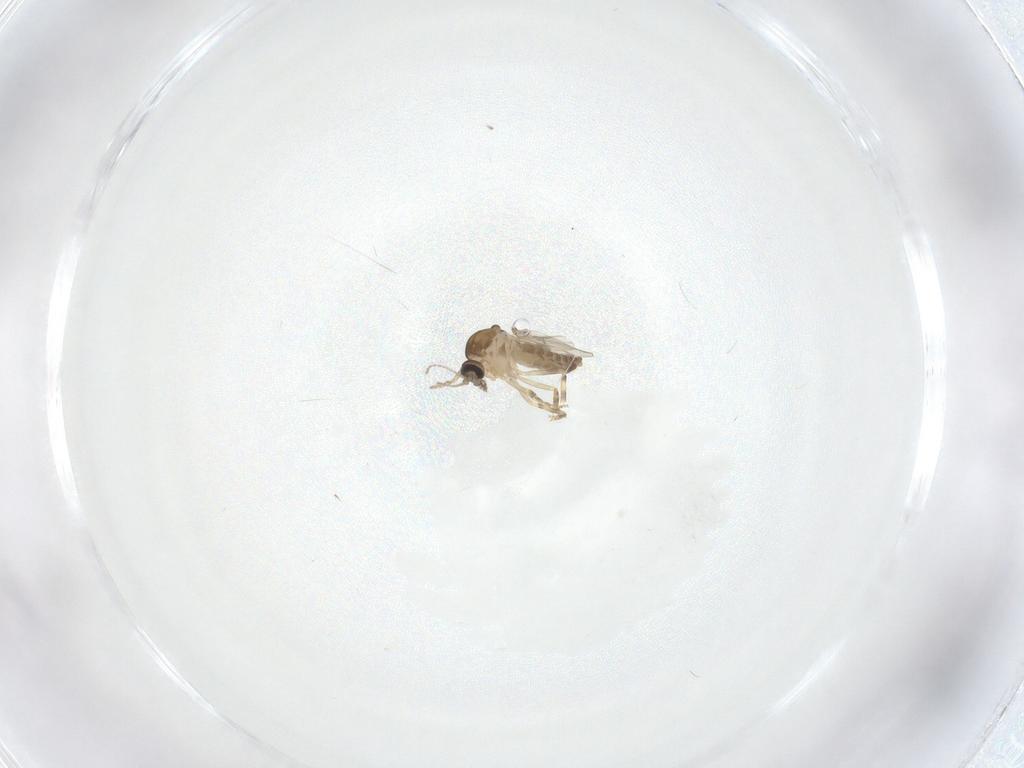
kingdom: Animalia
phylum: Arthropoda
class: Insecta
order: Diptera
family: Ceratopogonidae
